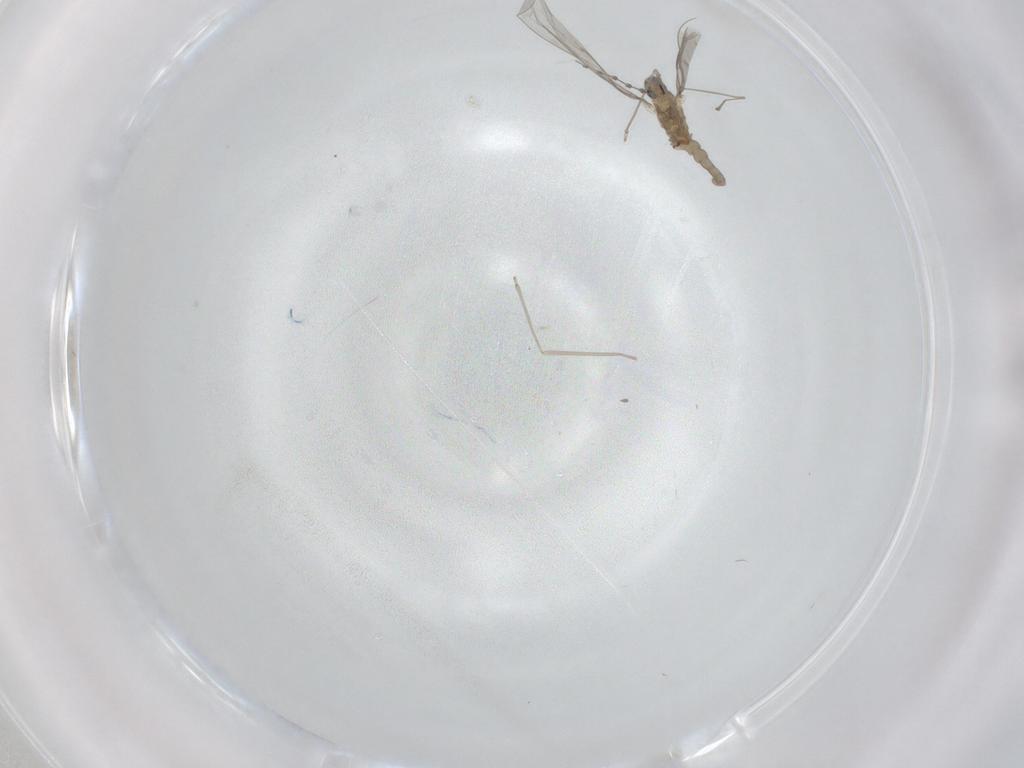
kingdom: Animalia
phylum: Arthropoda
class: Insecta
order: Diptera
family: Cecidomyiidae
